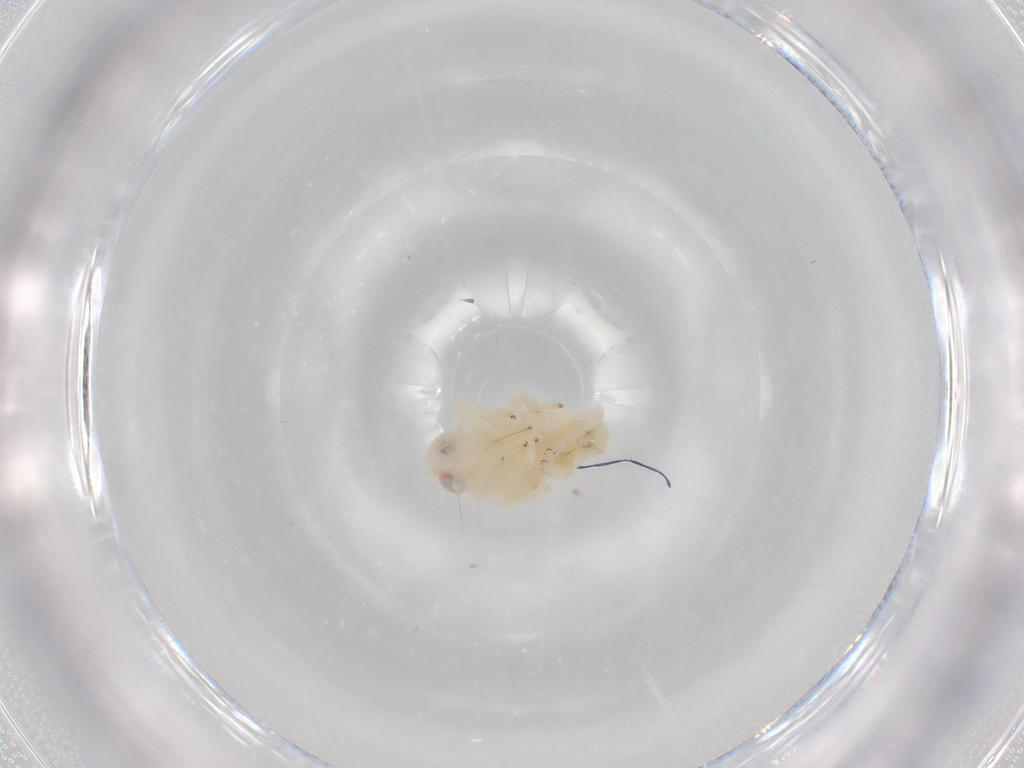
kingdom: Animalia
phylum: Arthropoda
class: Insecta
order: Hemiptera
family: Nogodinidae
